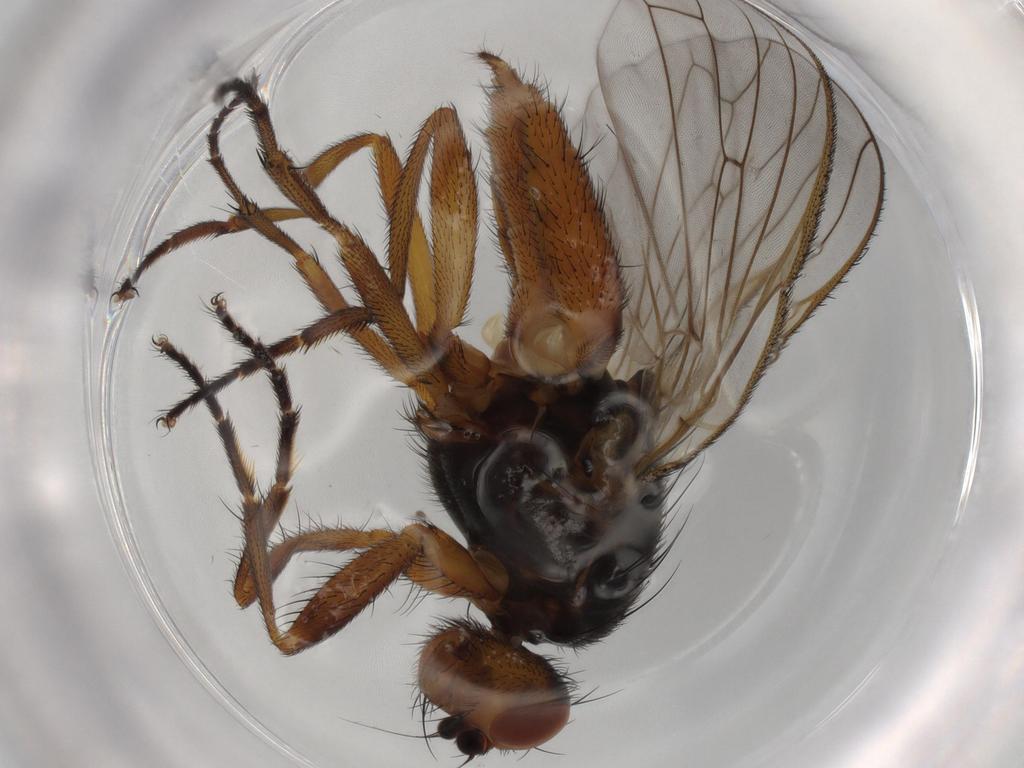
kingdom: Animalia
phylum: Arthropoda
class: Insecta
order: Diptera
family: Heleomyzidae
